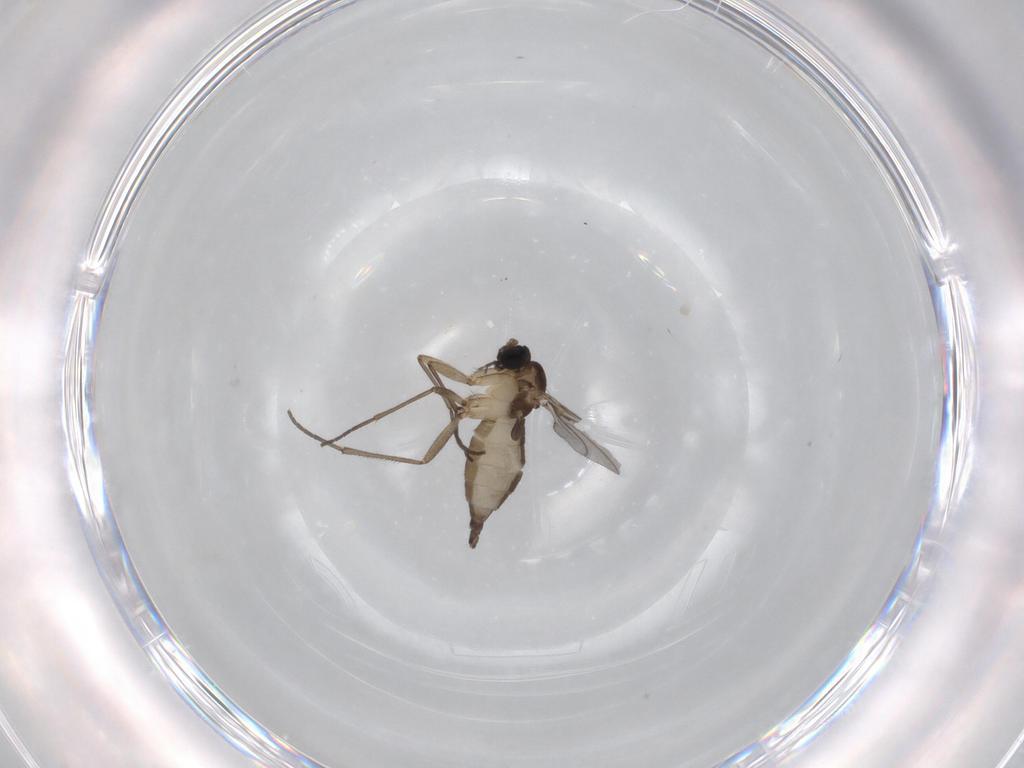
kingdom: Animalia
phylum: Arthropoda
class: Insecta
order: Diptera
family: Sciaridae
